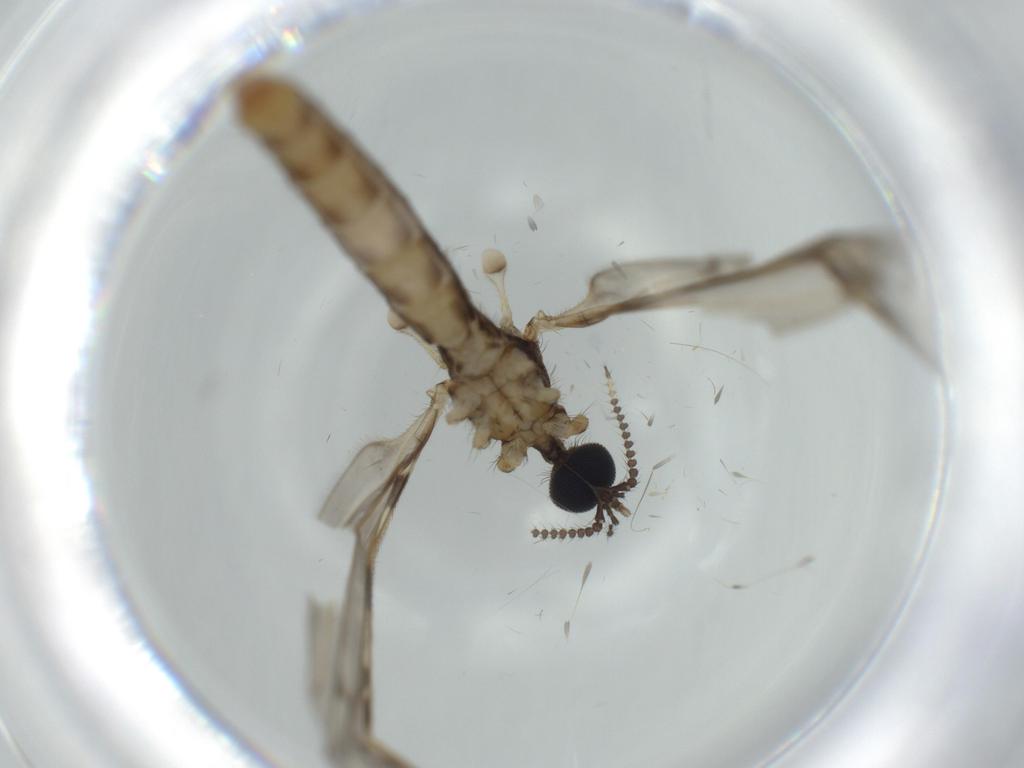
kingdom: Animalia
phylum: Arthropoda
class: Insecta
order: Diptera
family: Limoniidae
